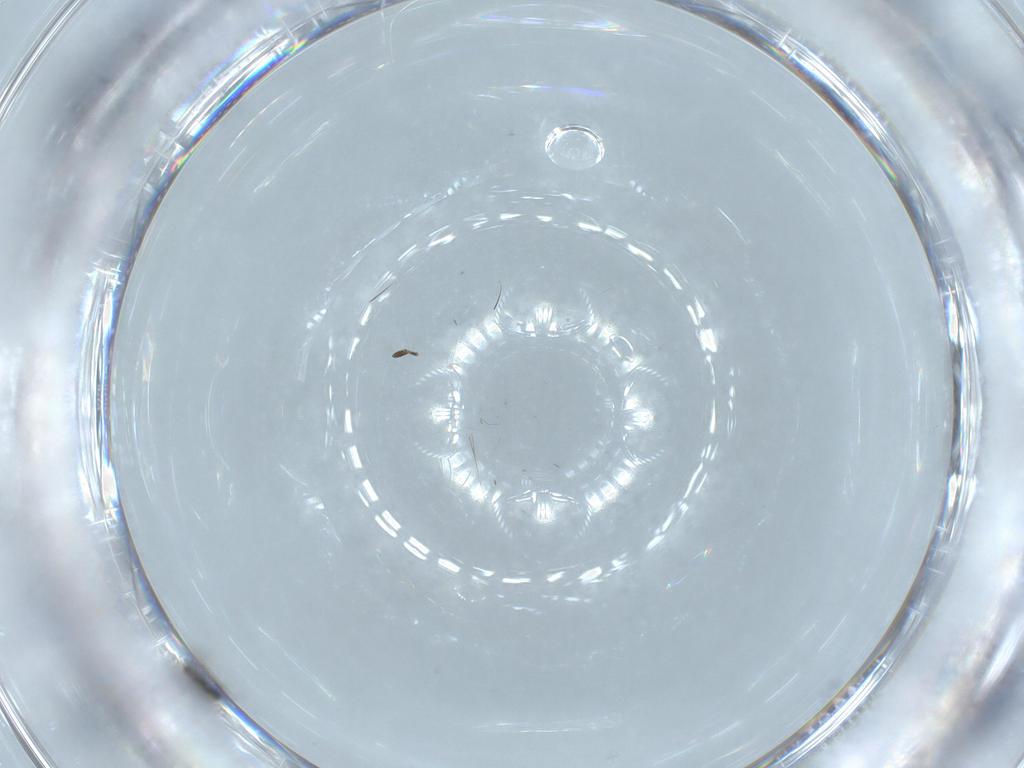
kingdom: Animalia
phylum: Arthropoda
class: Insecta
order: Hymenoptera
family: Scelionidae
